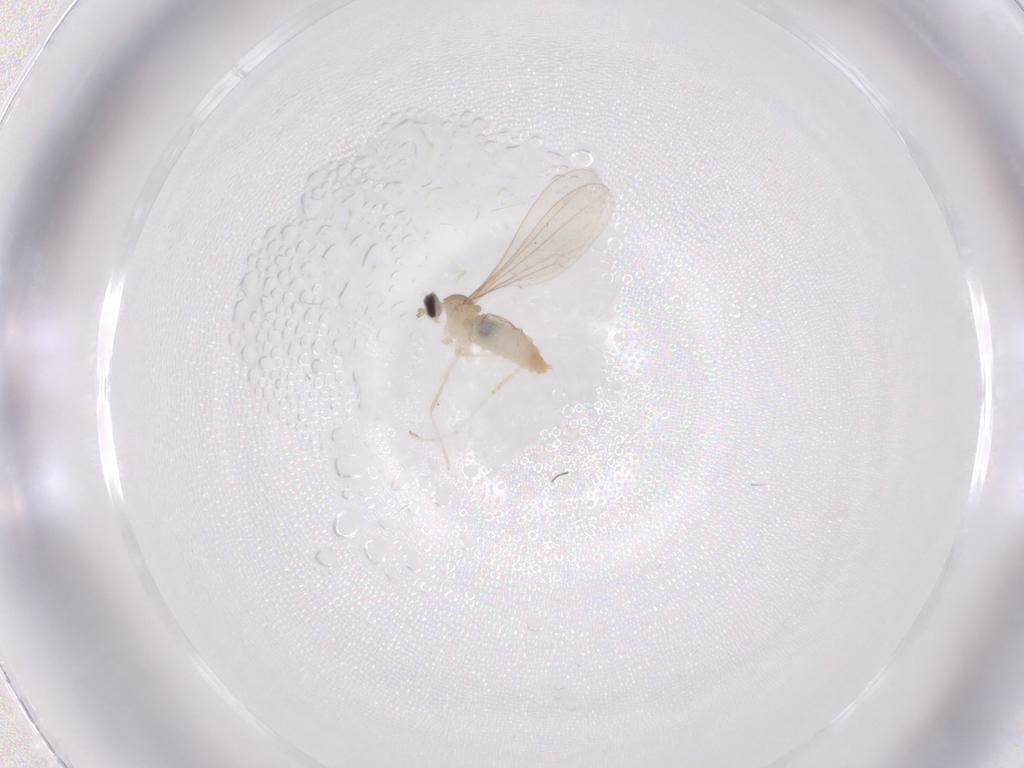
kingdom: Animalia
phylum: Arthropoda
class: Insecta
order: Diptera
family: Cecidomyiidae
